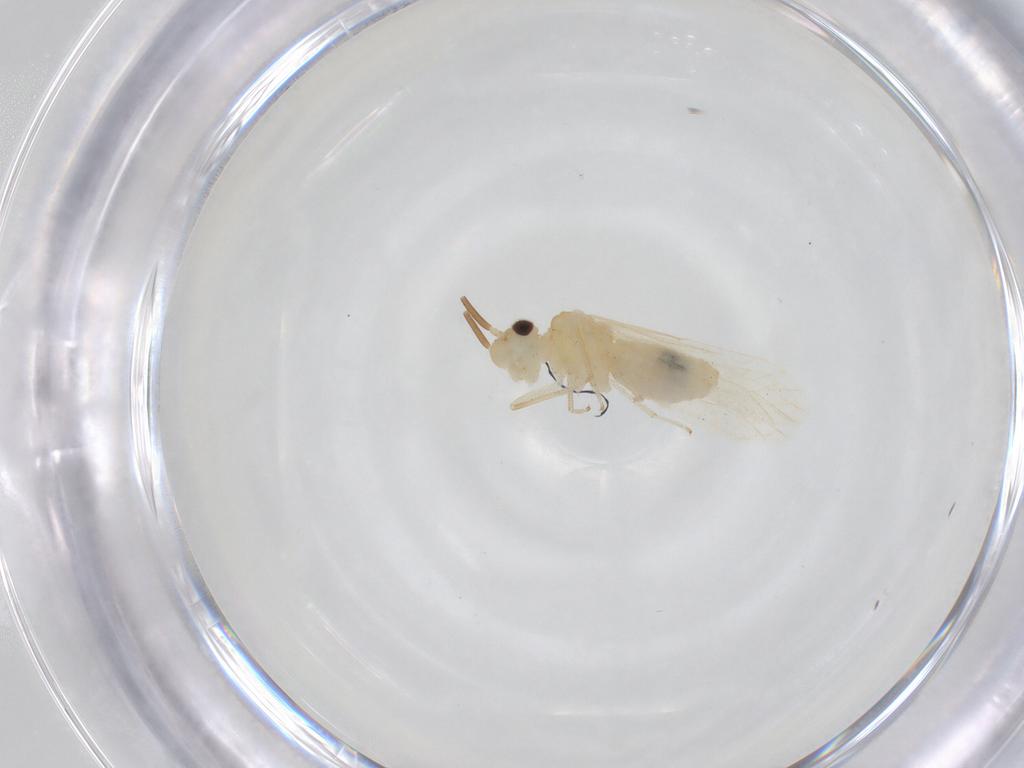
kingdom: Animalia
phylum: Arthropoda
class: Insecta
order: Psocodea
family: Caeciliusidae
